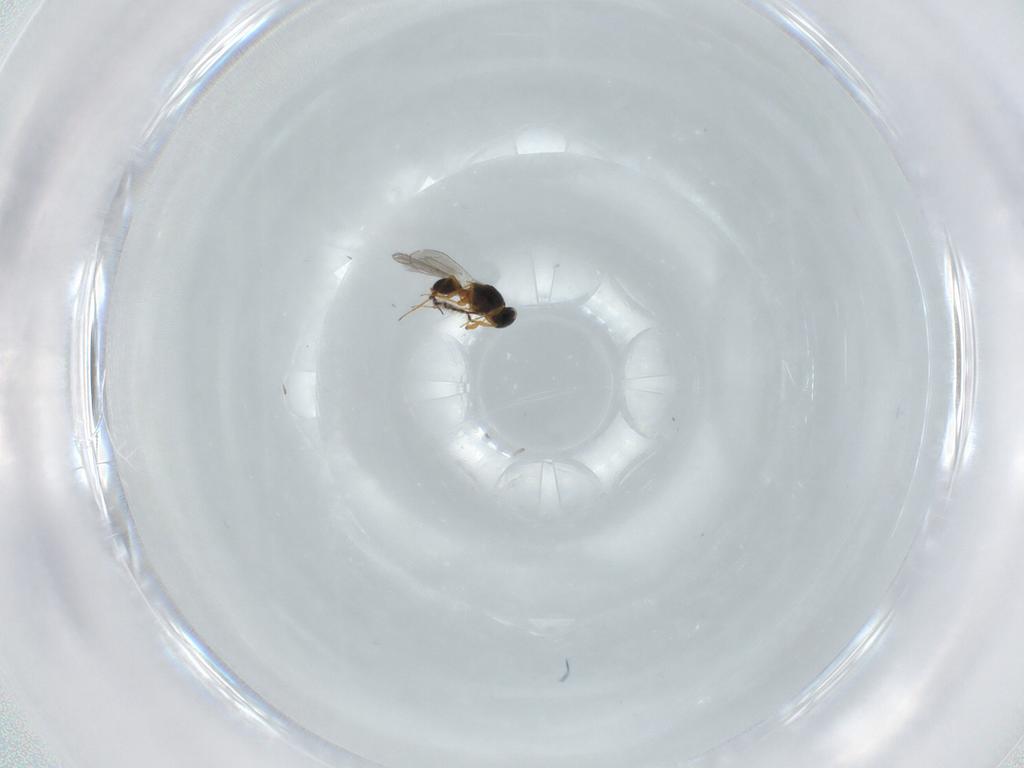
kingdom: Animalia
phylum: Arthropoda
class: Insecta
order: Hymenoptera
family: Platygastridae
